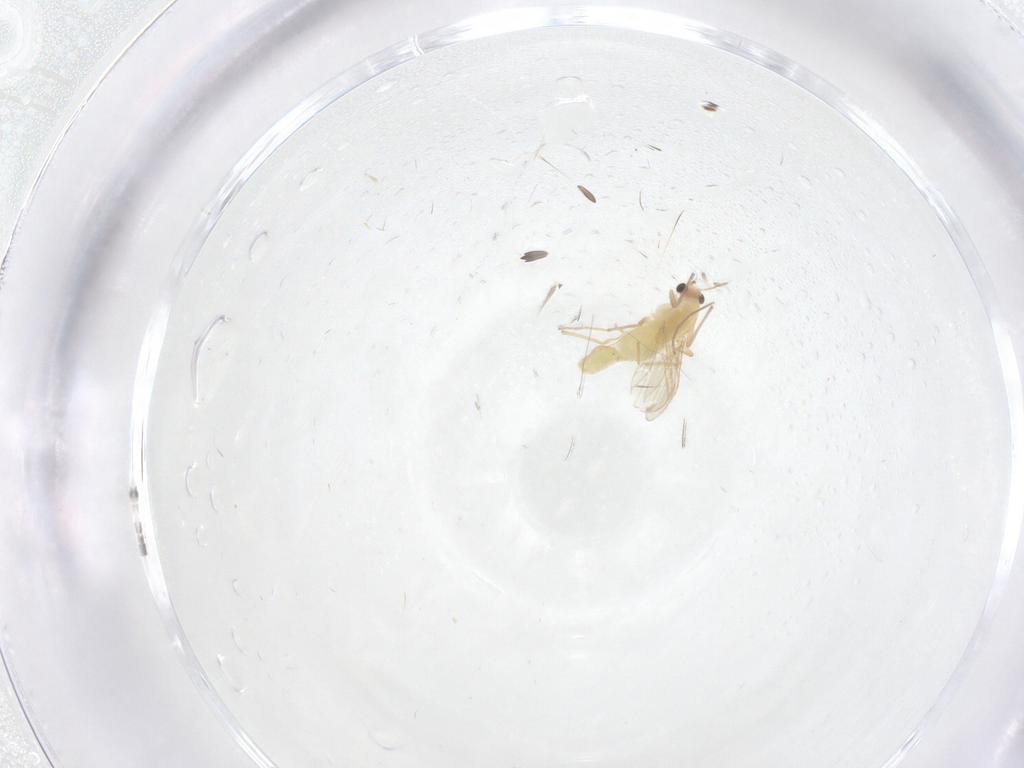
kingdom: Animalia
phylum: Arthropoda
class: Insecta
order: Diptera
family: Chironomidae
